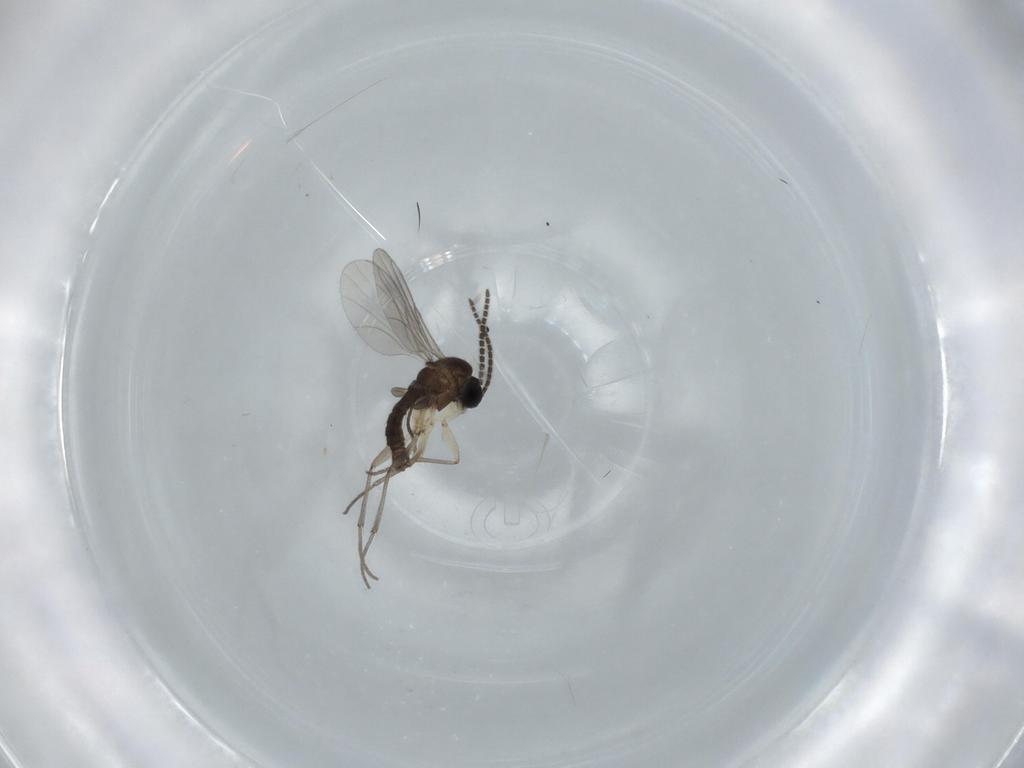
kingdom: Animalia
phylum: Arthropoda
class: Insecta
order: Diptera
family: Sciaridae
